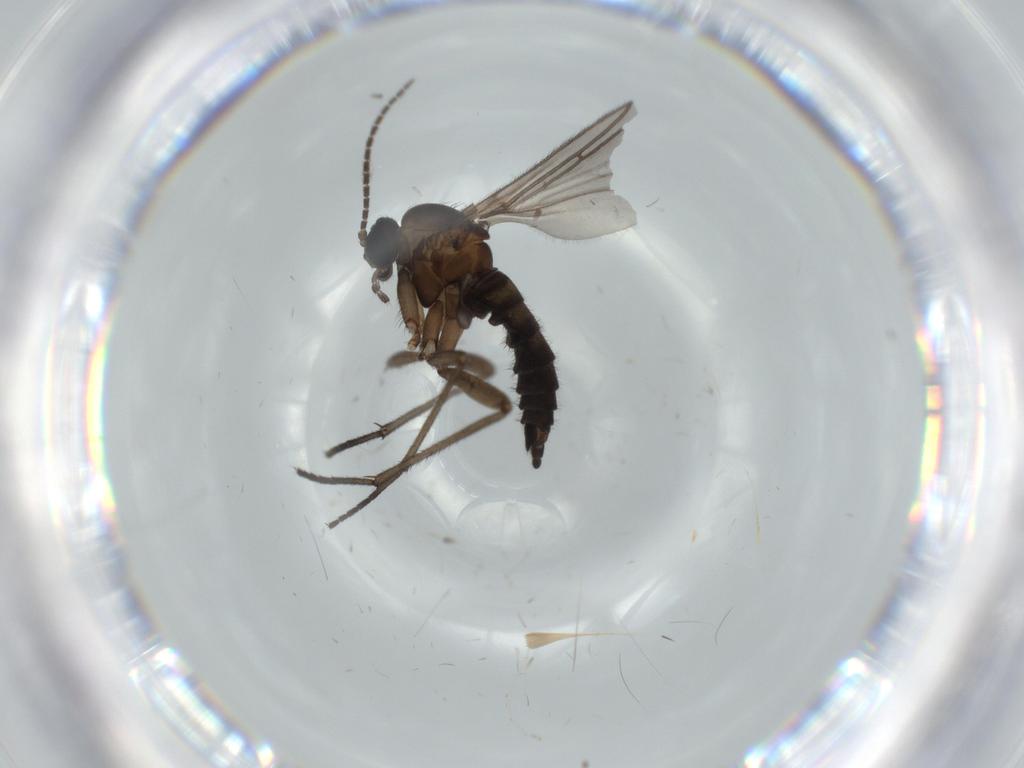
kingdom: Animalia
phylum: Arthropoda
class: Insecta
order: Diptera
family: Sciaridae
